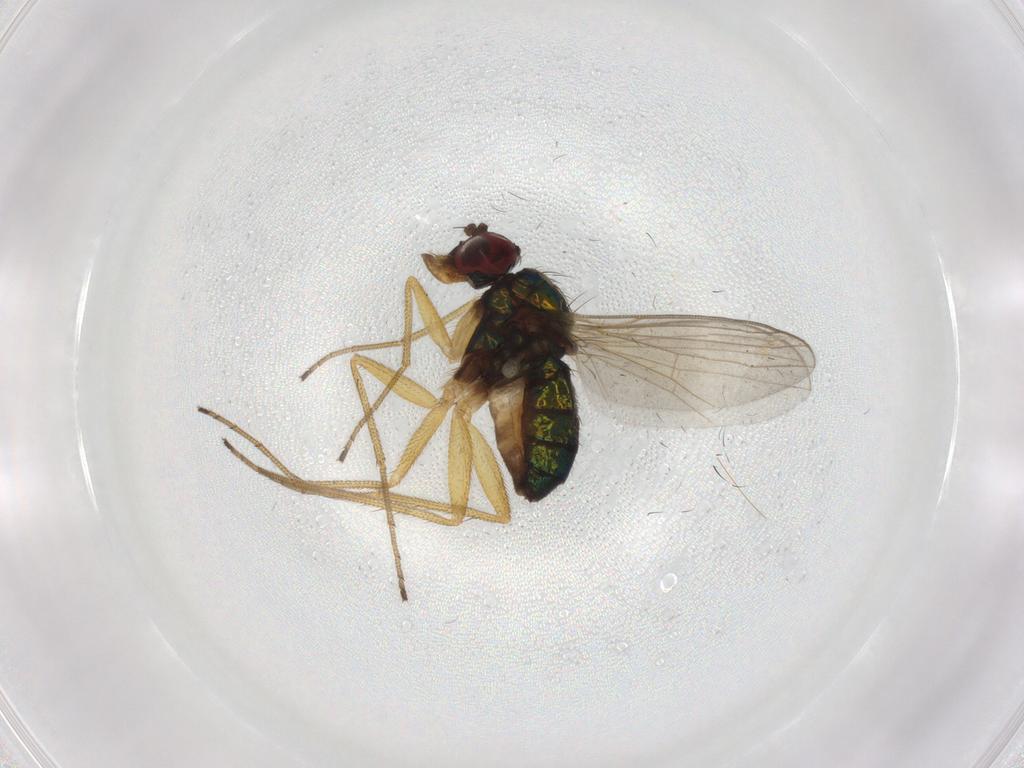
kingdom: Animalia
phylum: Arthropoda
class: Insecta
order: Diptera
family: Dolichopodidae
